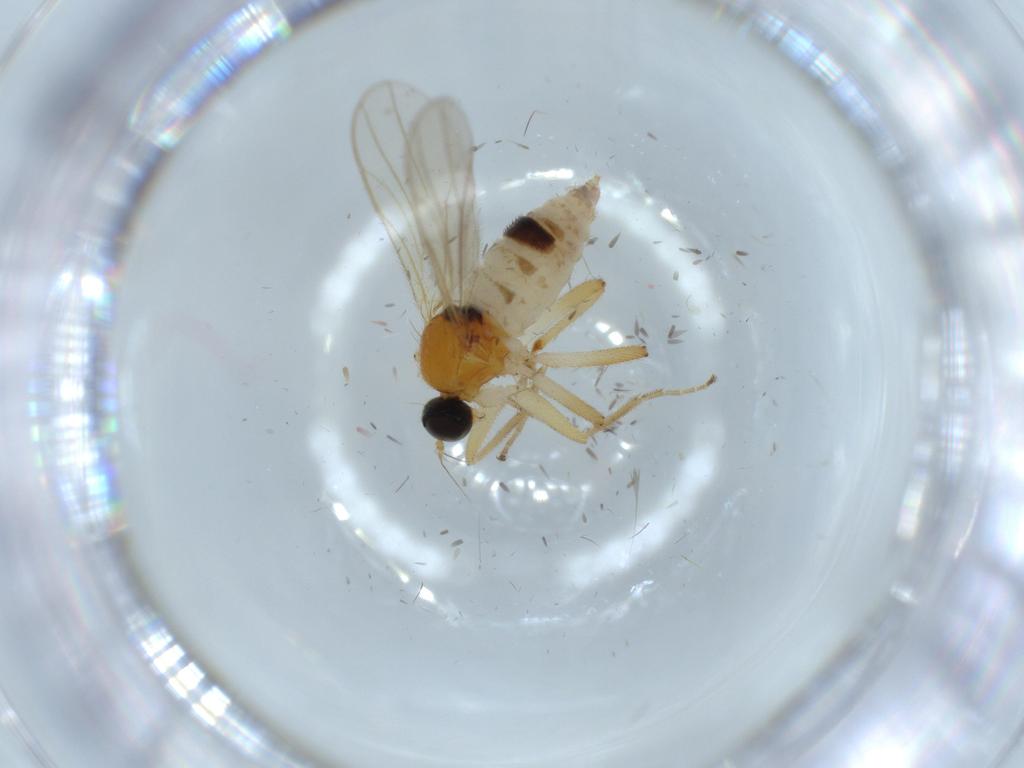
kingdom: Animalia
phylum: Arthropoda
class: Insecta
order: Diptera
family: Hybotidae
